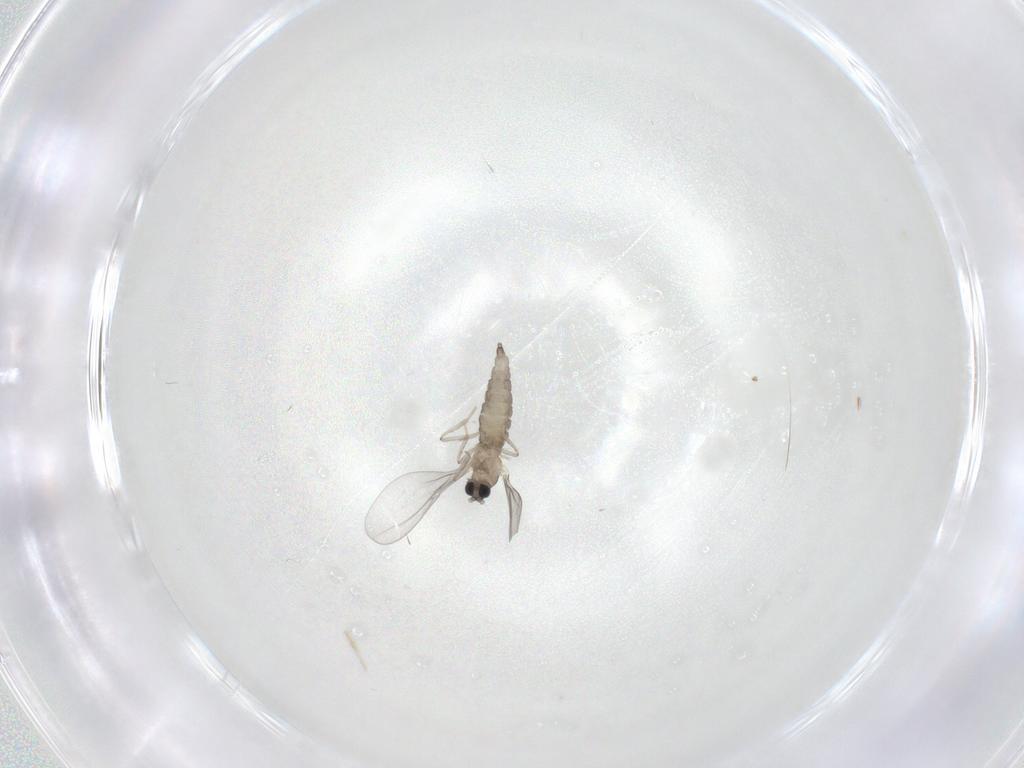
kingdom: Animalia
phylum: Arthropoda
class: Insecta
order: Diptera
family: Cecidomyiidae
